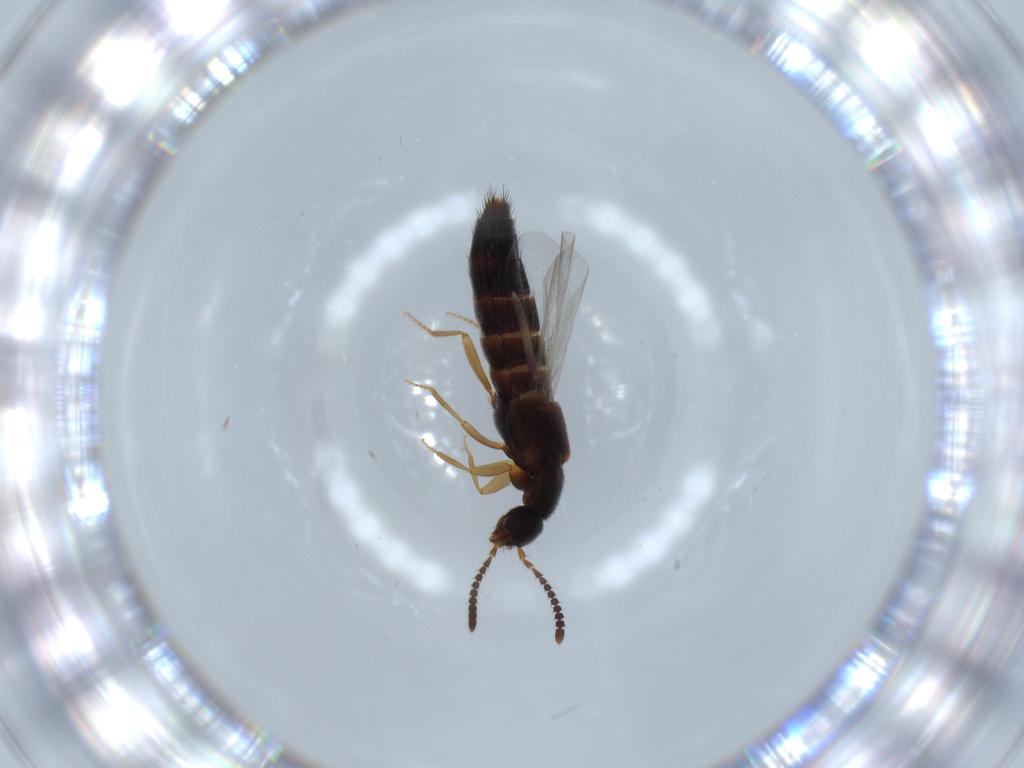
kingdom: Animalia
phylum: Arthropoda
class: Insecta
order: Coleoptera
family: Staphylinidae
